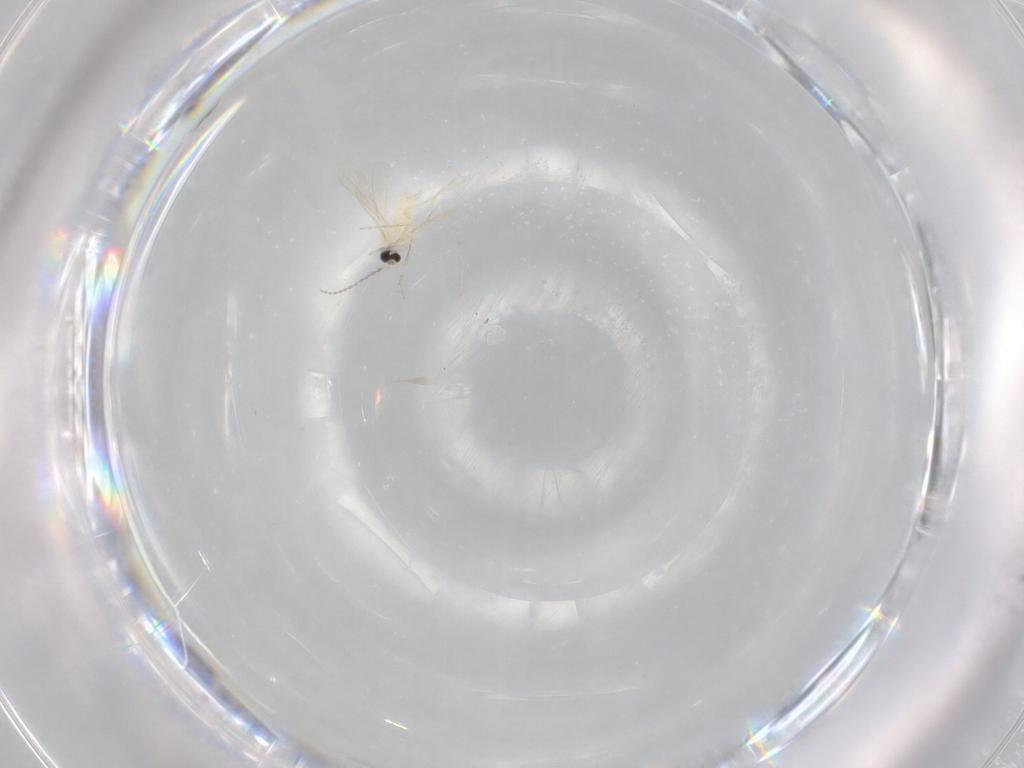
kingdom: Animalia
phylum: Arthropoda
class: Insecta
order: Diptera
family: Cecidomyiidae
